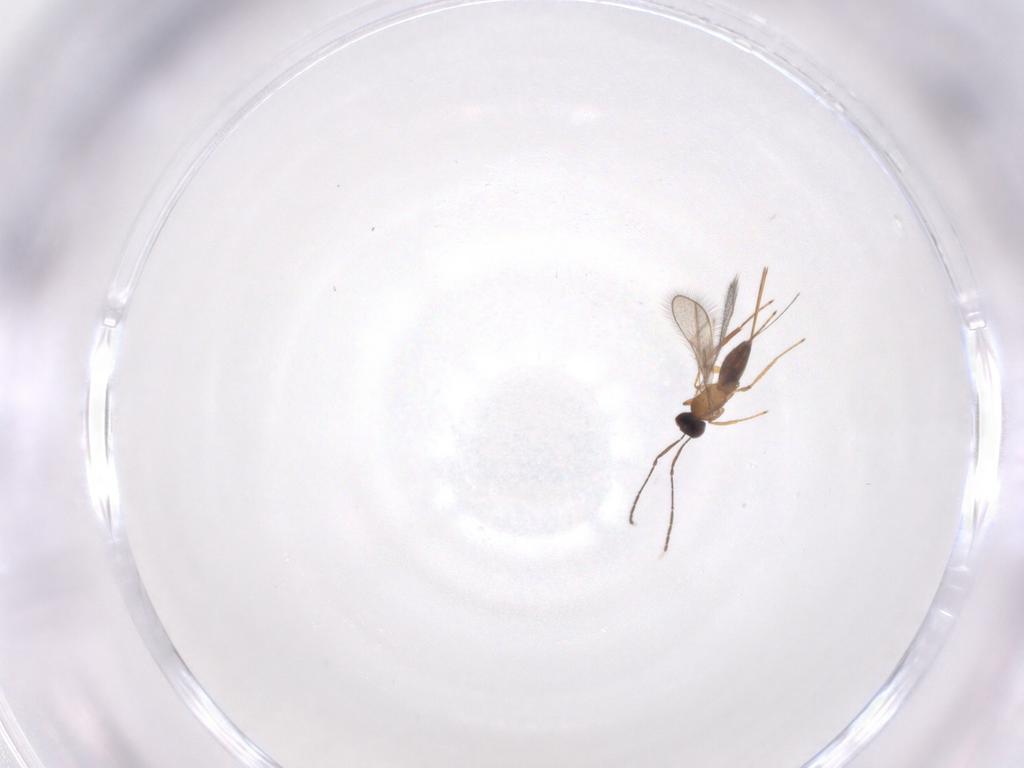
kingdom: Animalia
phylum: Arthropoda
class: Insecta
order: Hymenoptera
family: Mymaridae
